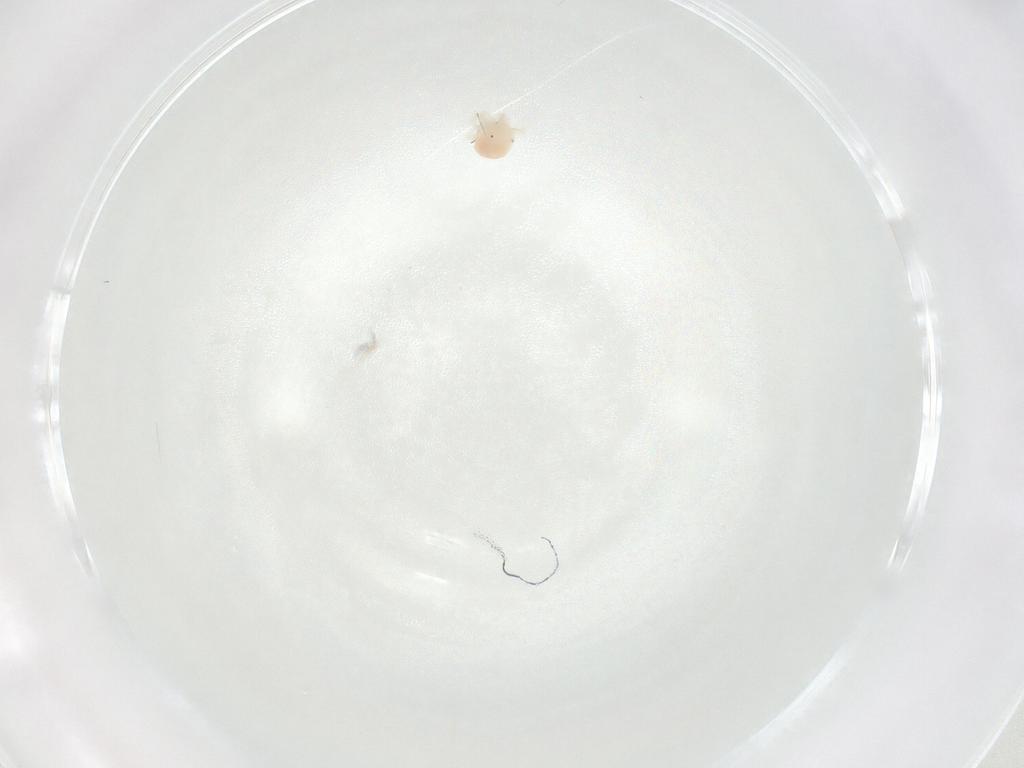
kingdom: Animalia
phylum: Arthropoda
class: Arachnida
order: Trombidiformes
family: Anystidae
